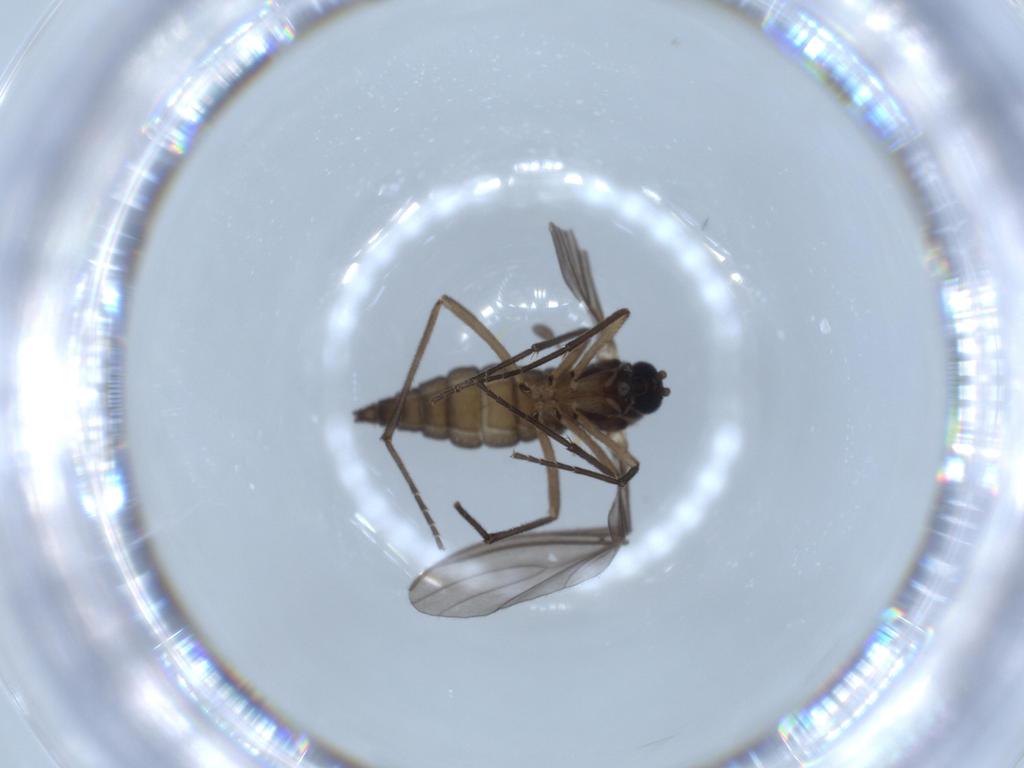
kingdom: Animalia
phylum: Arthropoda
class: Insecta
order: Diptera
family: Sciaridae
